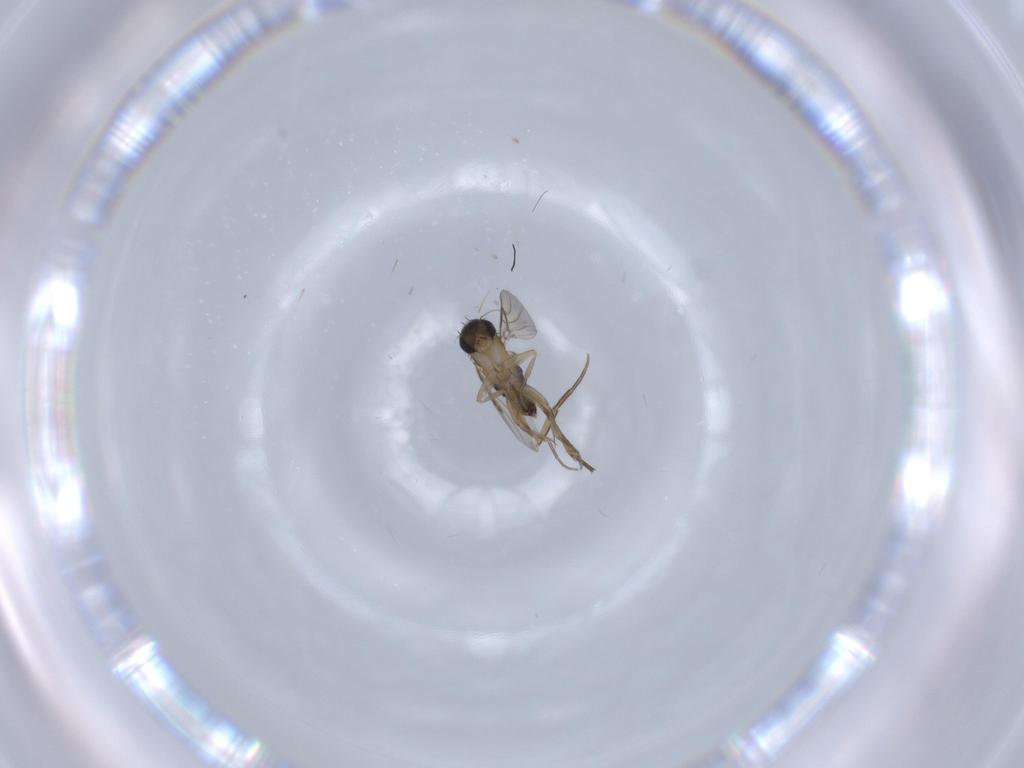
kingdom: Animalia
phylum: Arthropoda
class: Insecta
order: Diptera
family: Phoridae
